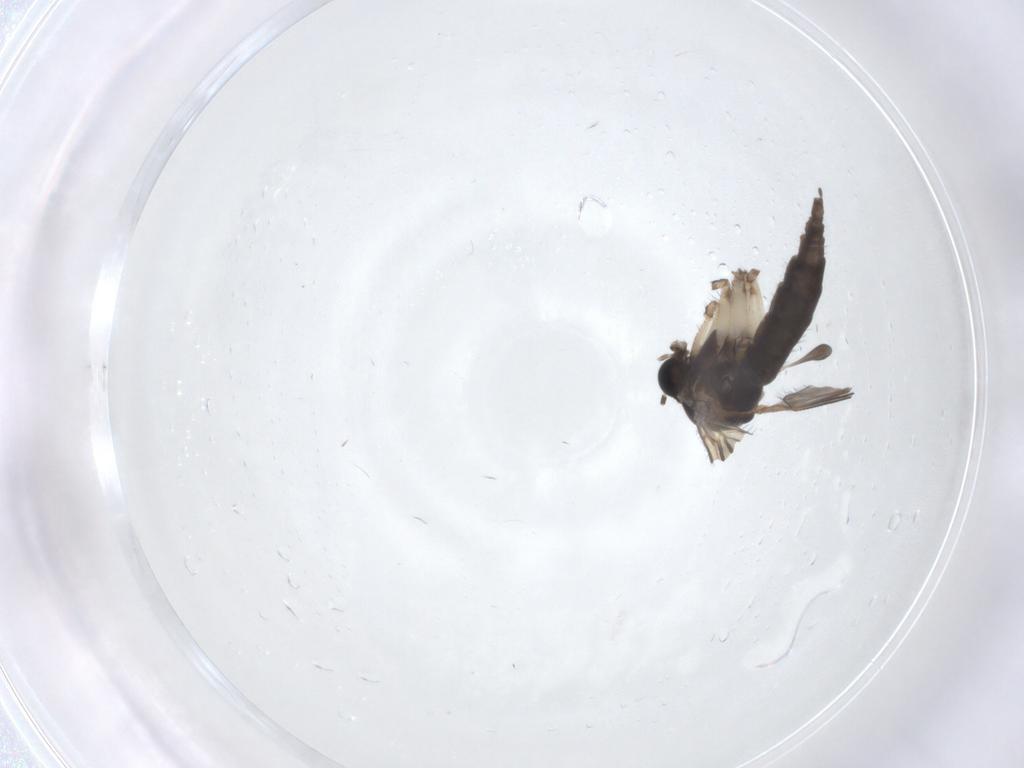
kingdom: Animalia
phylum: Arthropoda
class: Insecta
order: Diptera
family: Sciaridae
